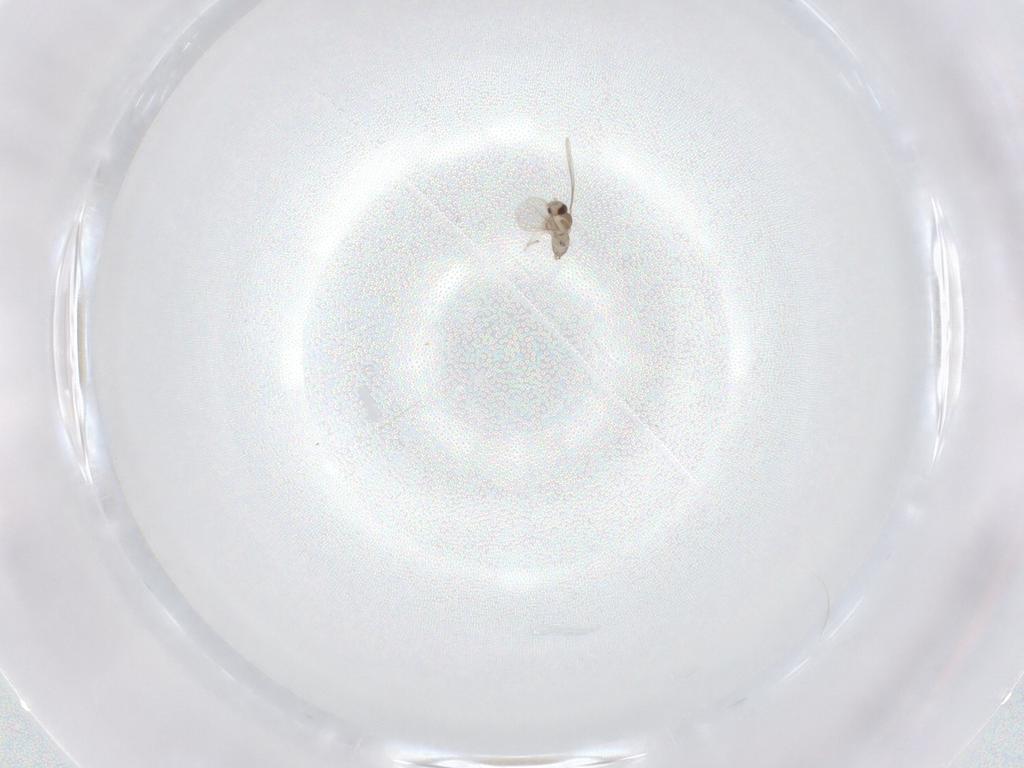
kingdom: Animalia
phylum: Arthropoda
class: Insecta
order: Diptera
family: Cecidomyiidae
